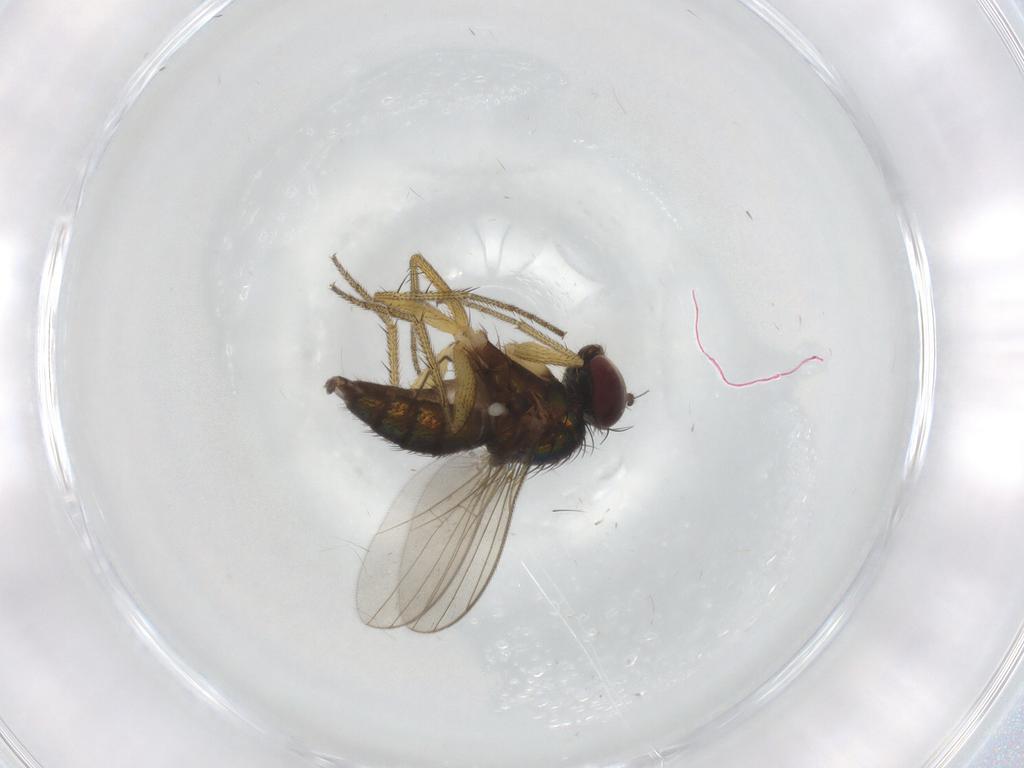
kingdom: Animalia
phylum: Arthropoda
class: Insecta
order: Diptera
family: Dolichopodidae
